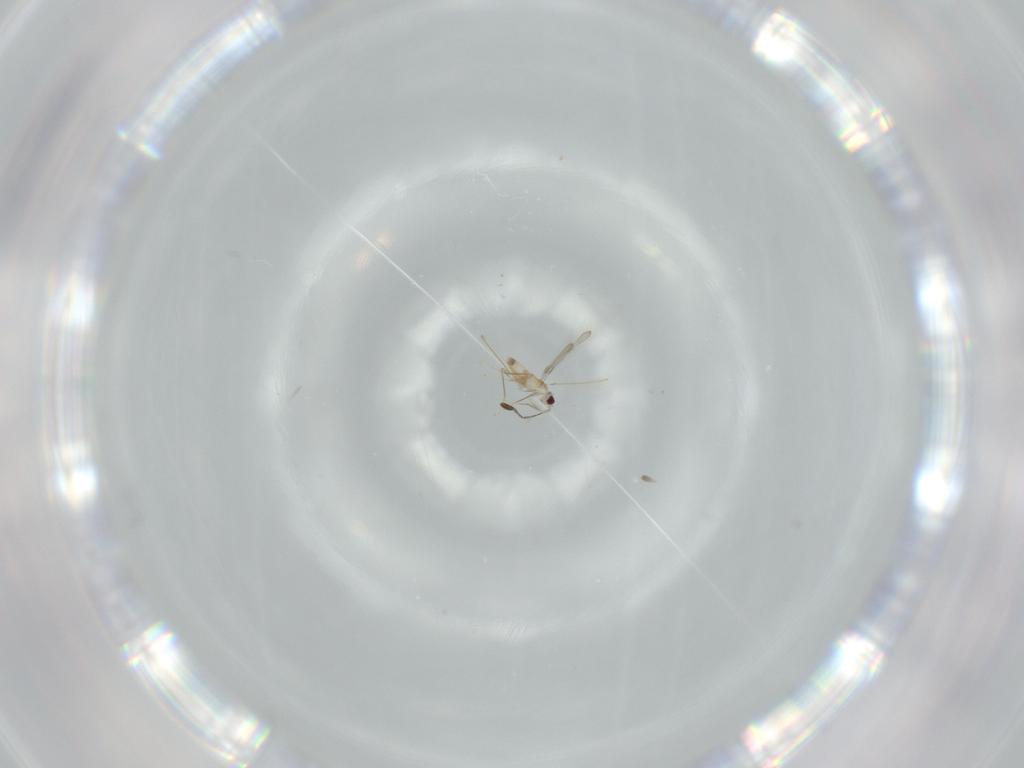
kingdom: Animalia
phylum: Arthropoda
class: Insecta
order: Hymenoptera
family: Mymaridae
